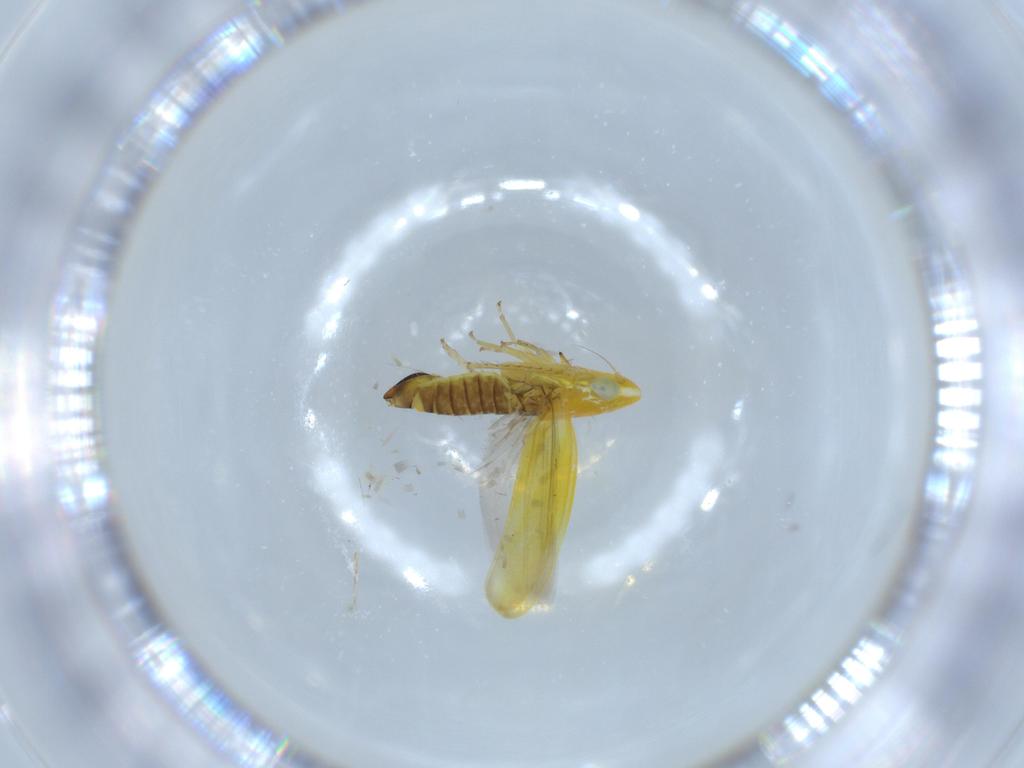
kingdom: Animalia
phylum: Arthropoda
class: Insecta
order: Hemiptera
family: Cicadellidae
